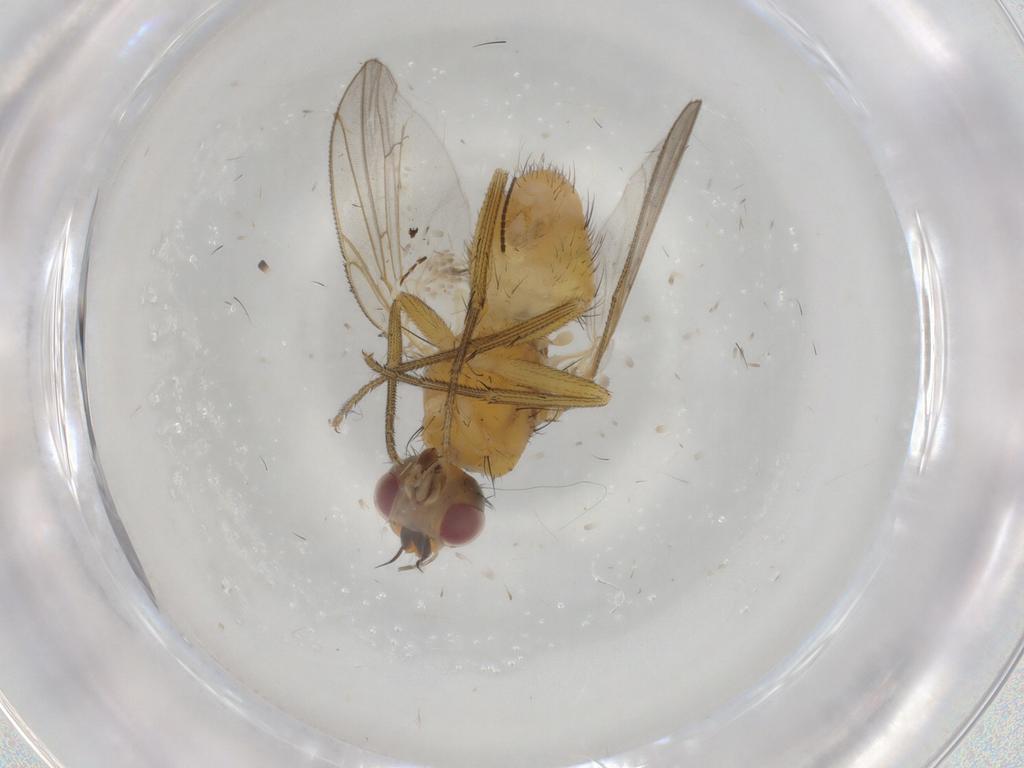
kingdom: Animalia
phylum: Arthropoda
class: Insecta
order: Diptera
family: Muscidae
